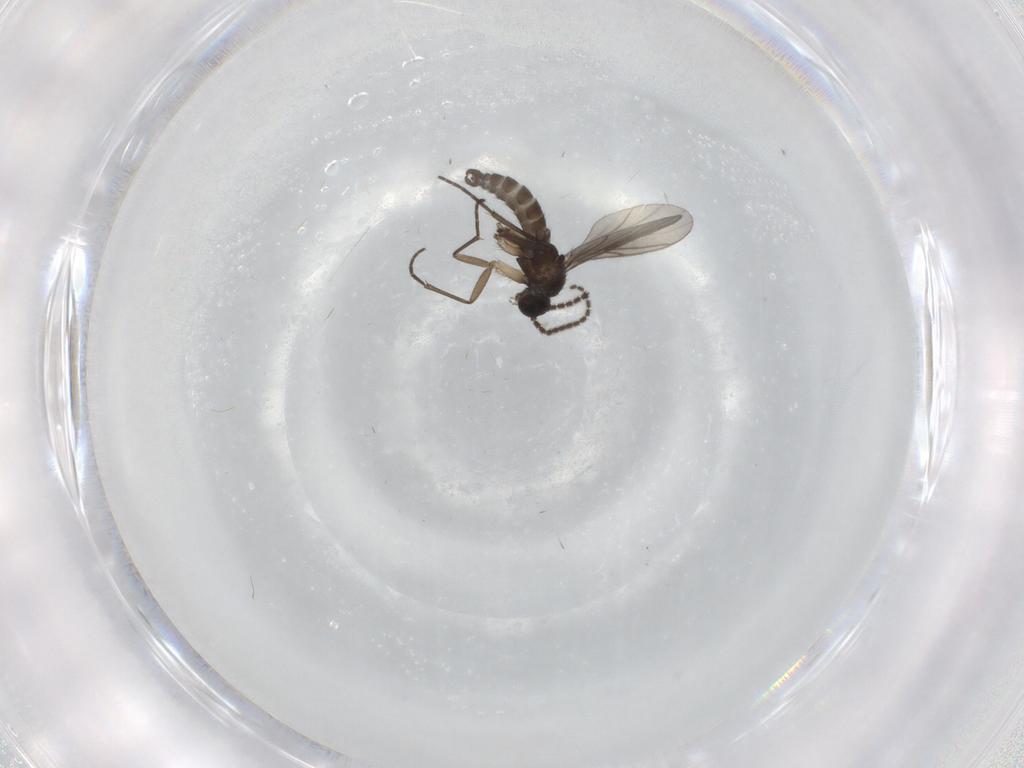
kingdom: Animalia
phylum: Arthropoda
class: Insecta
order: Diptera
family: Sciaridae
